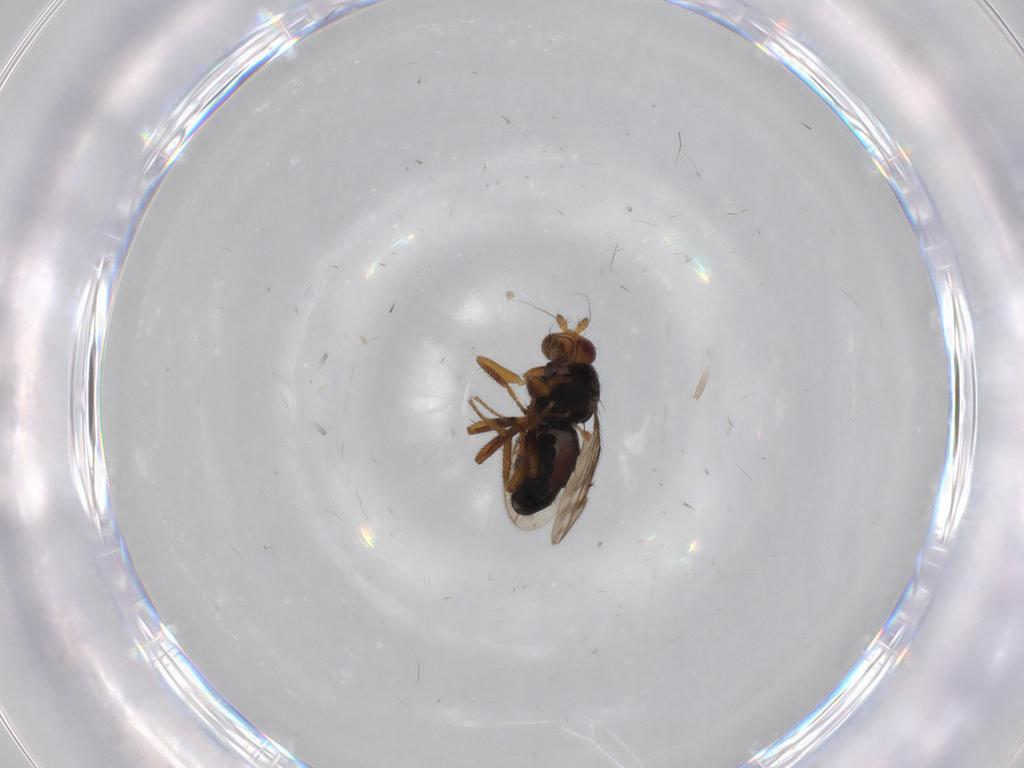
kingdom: Animalia
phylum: Arthropoda
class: Insecta
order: Diptera
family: Sphaeroceridae
